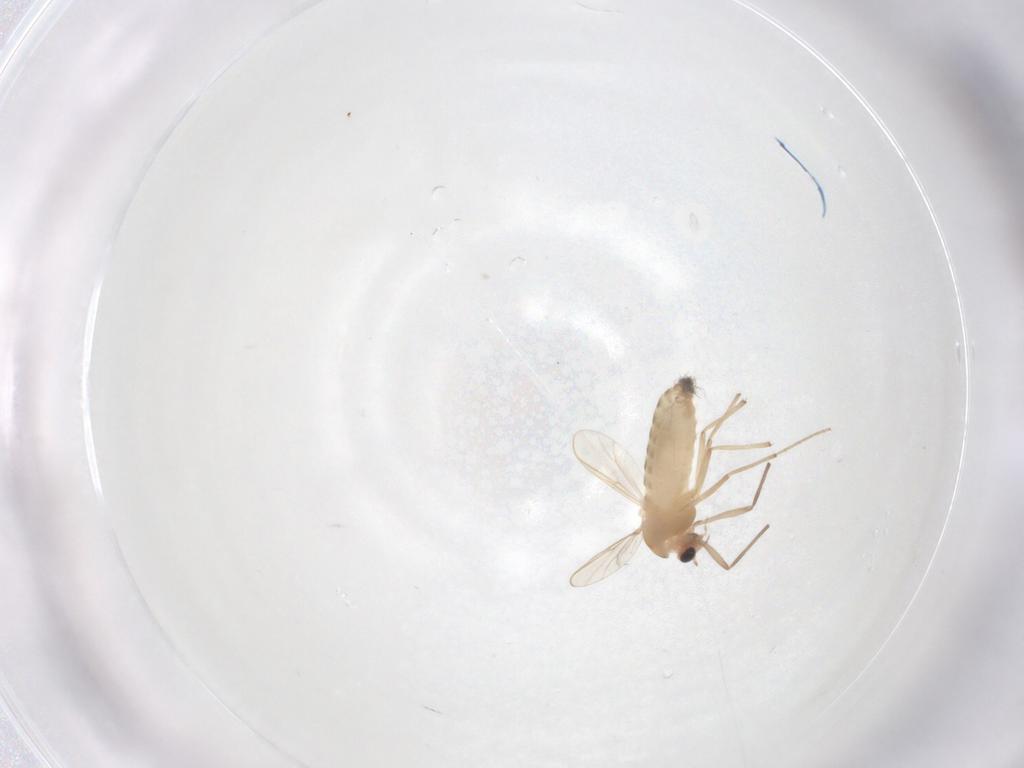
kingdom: Animalia
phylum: Arthropoda
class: Insecta
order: Diptera
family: Chironomidae
